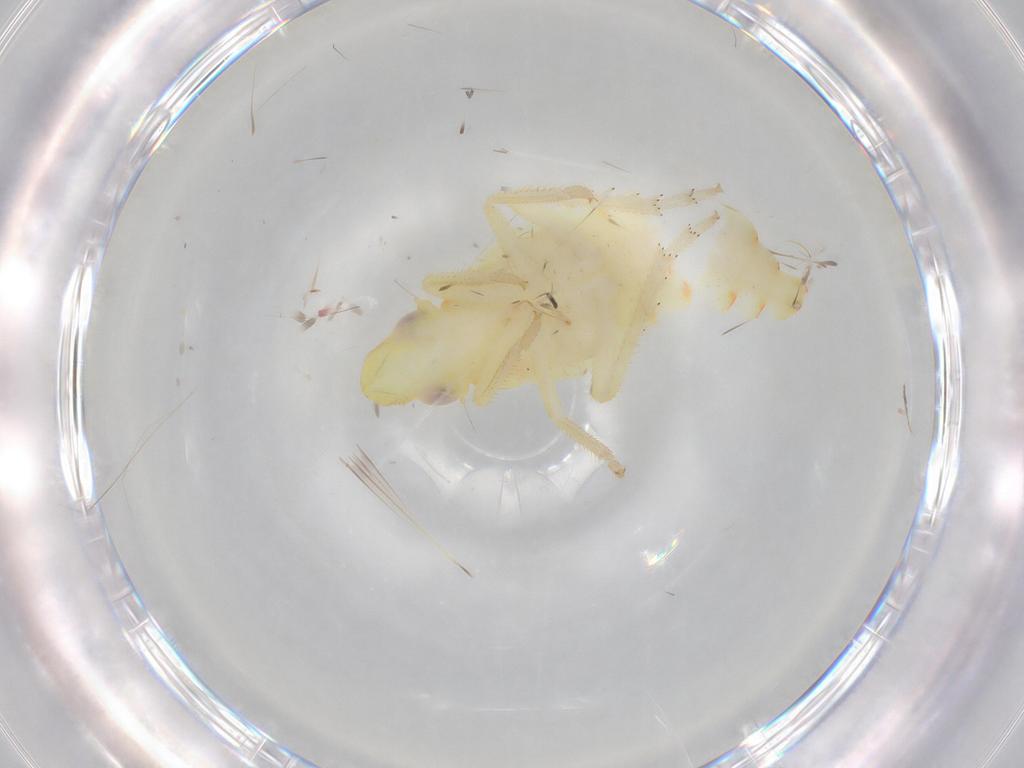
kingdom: Animalia
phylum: Arthropoda
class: Insecta
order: Hemiptera
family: Tropiduchidae
